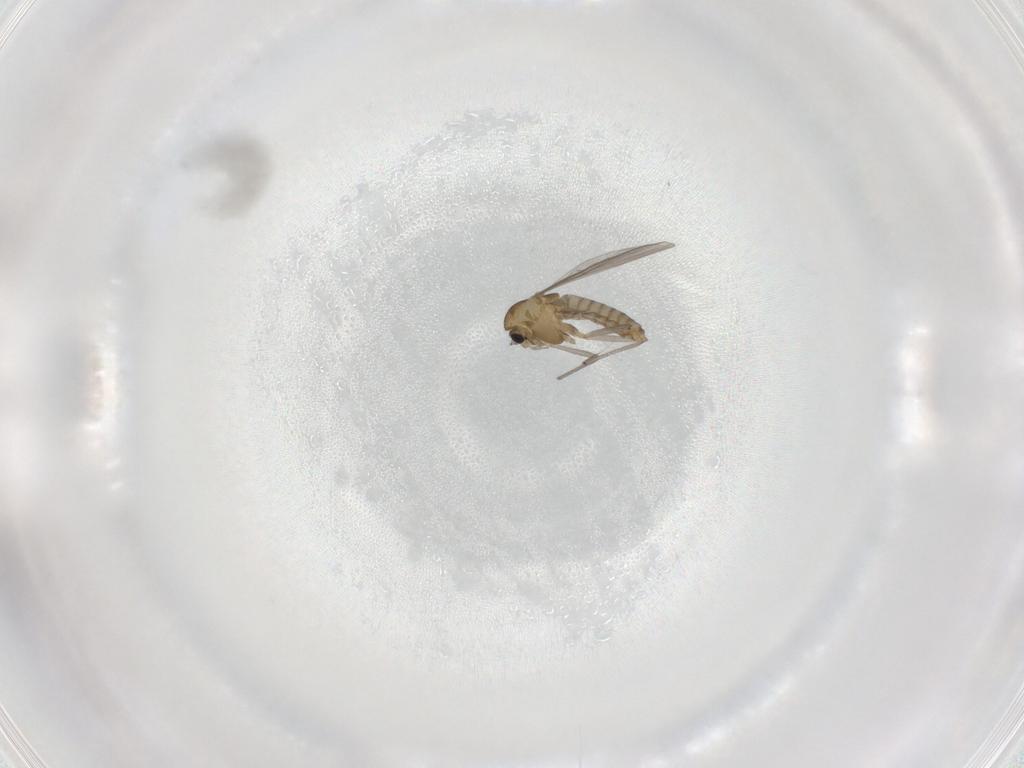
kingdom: Animalia
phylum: Arthropoda
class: Insecta
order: Diptera
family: Chironomidae
